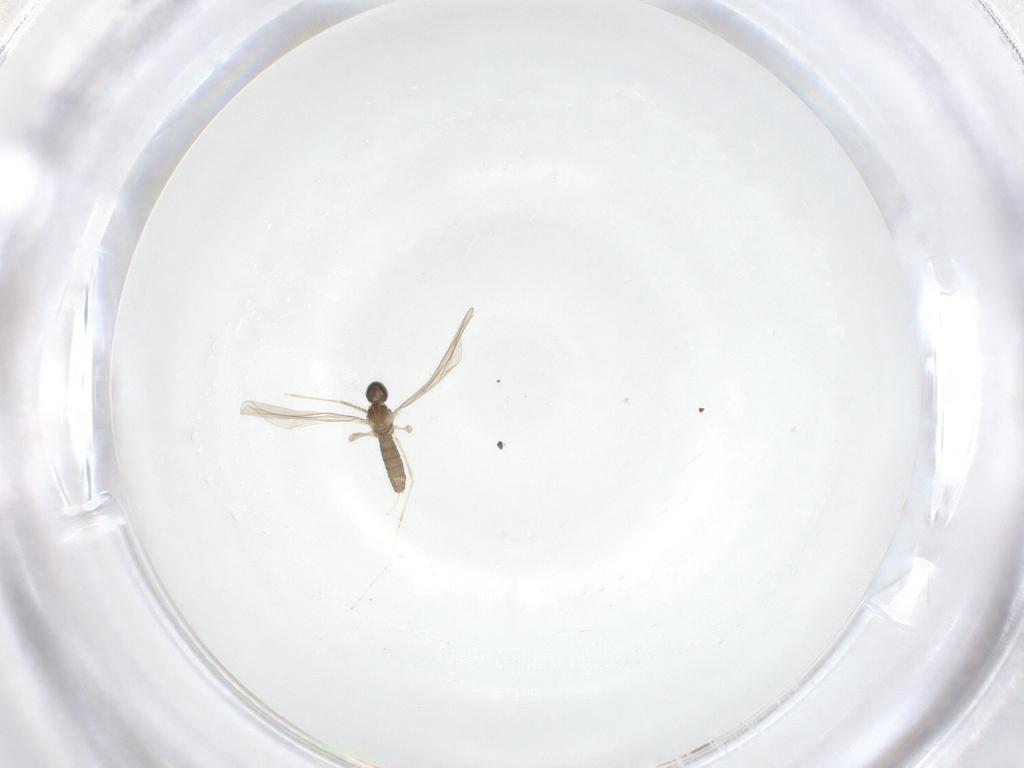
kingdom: Animalia
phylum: Arthropoda
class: Insecta
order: Diptera
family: Cecidomyiidae
